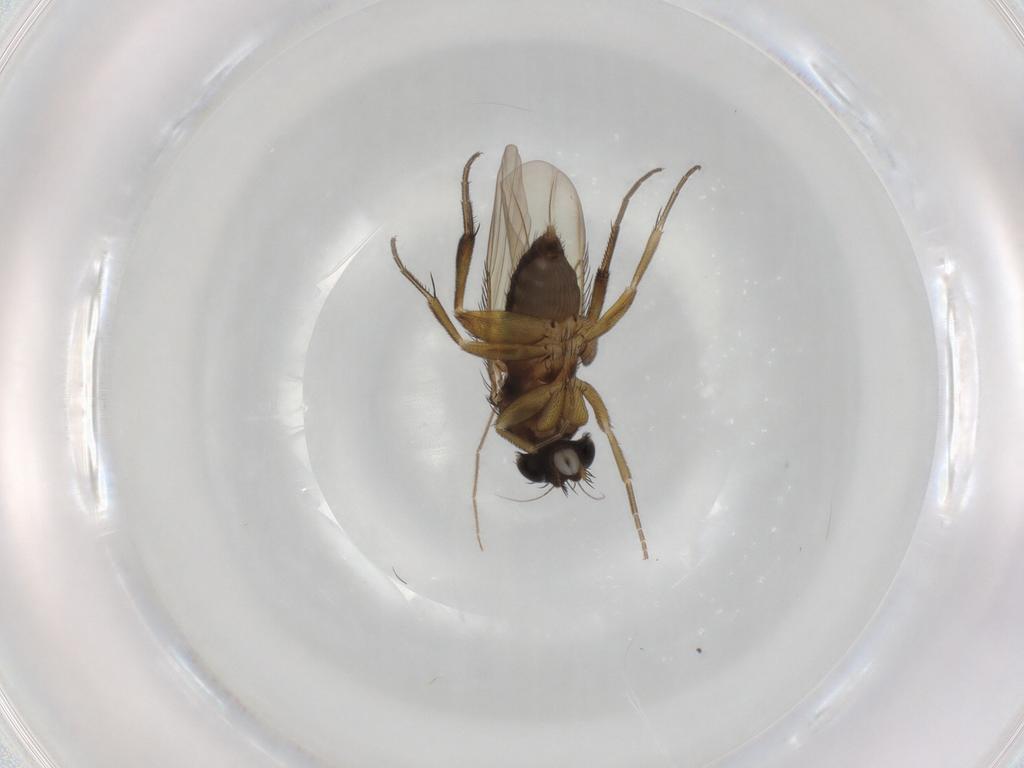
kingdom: Animalia
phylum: Arthropoda
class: Insecta
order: Diptera
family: Phoridae
